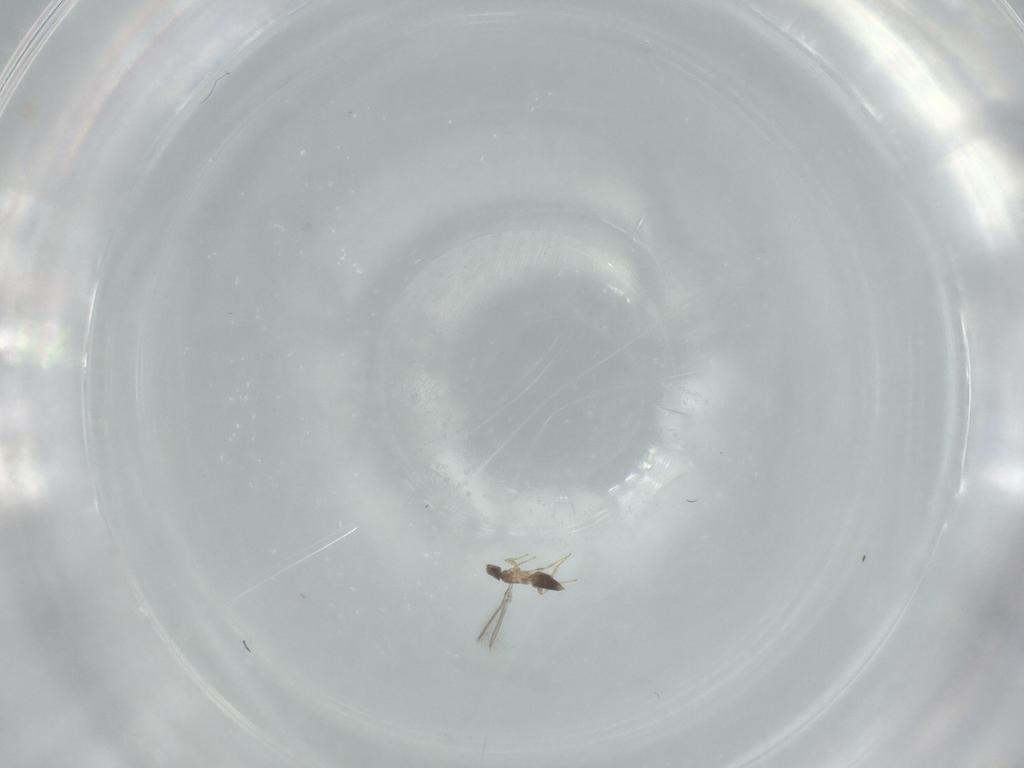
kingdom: Animalia
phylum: Arthropoda
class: Insecta
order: Hymenoptera
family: Mymaridae
